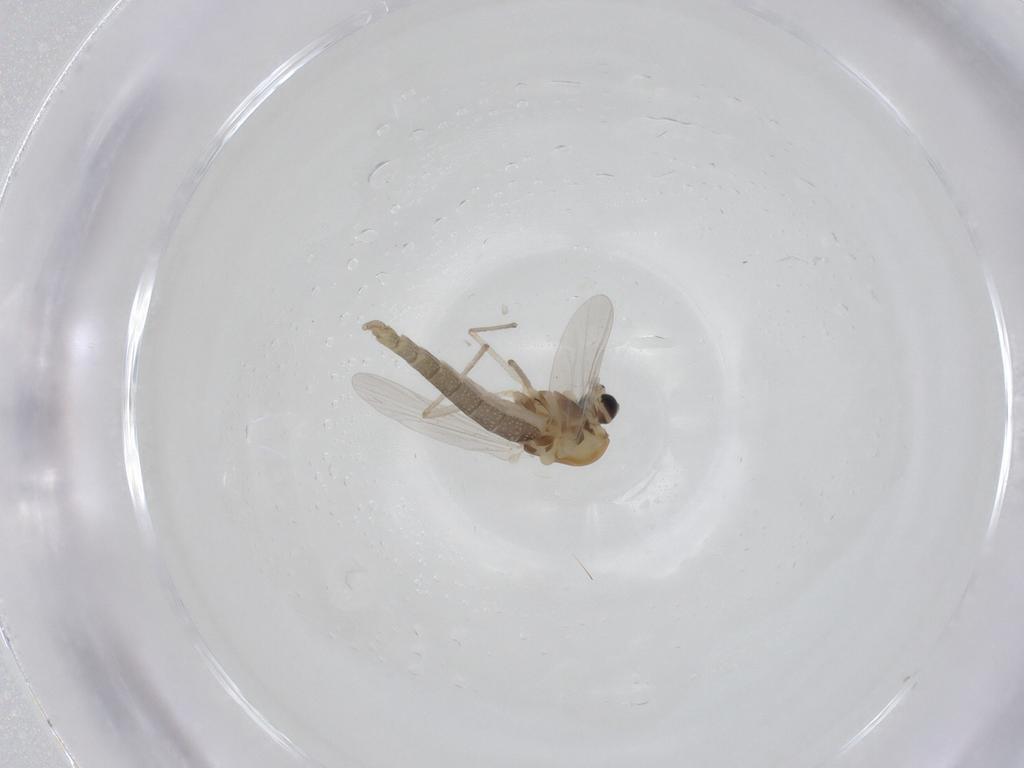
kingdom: Animalia
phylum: Arthropoda
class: Insecta
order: Diptera
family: Chironomidae
